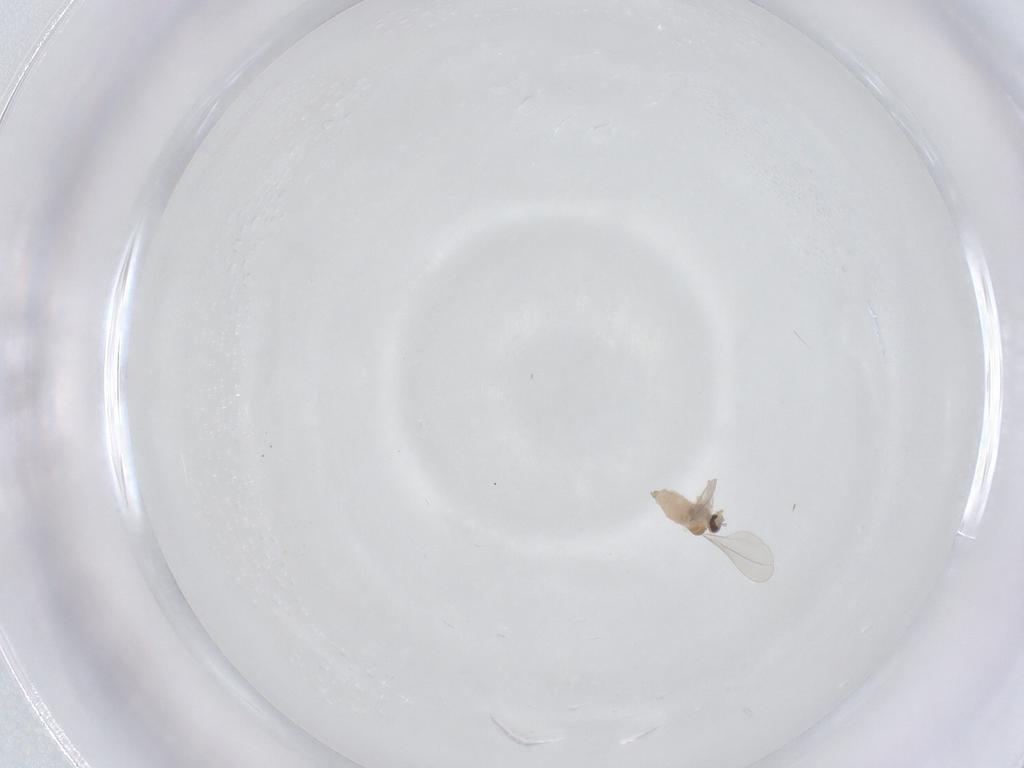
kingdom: Animalia
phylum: Arthropoda
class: Insecta
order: Diptera
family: Cecidomyiidae
